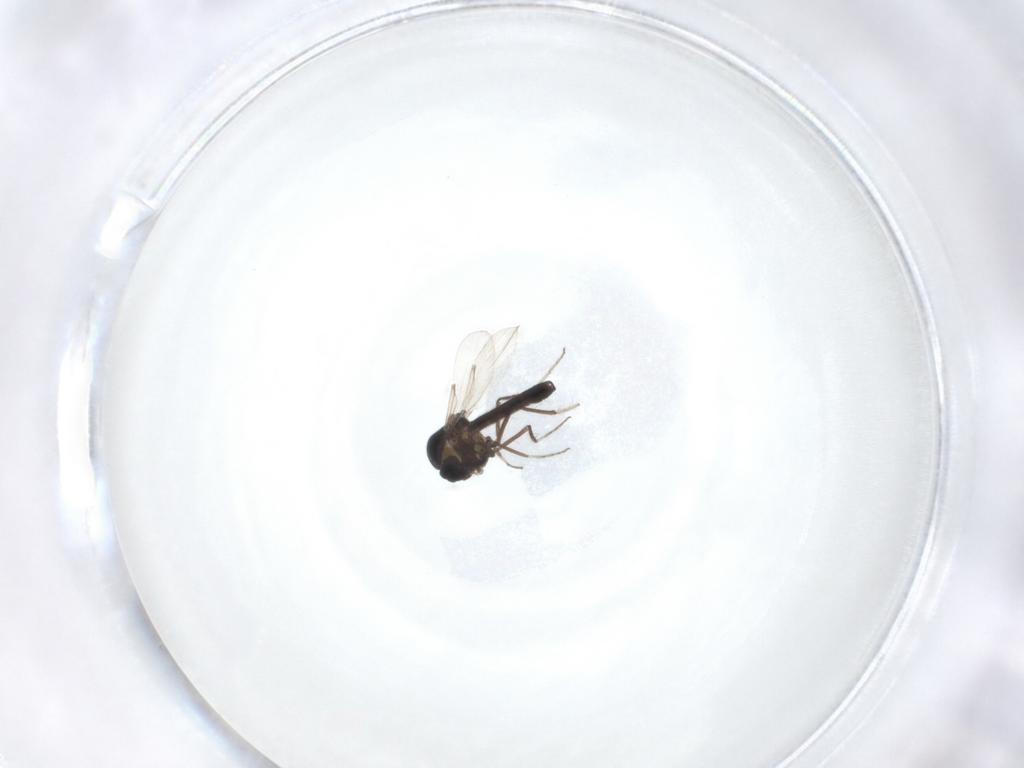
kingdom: Animalia
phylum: Arthropoda
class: Insecta
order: Diptera
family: Ceratopogonidae
